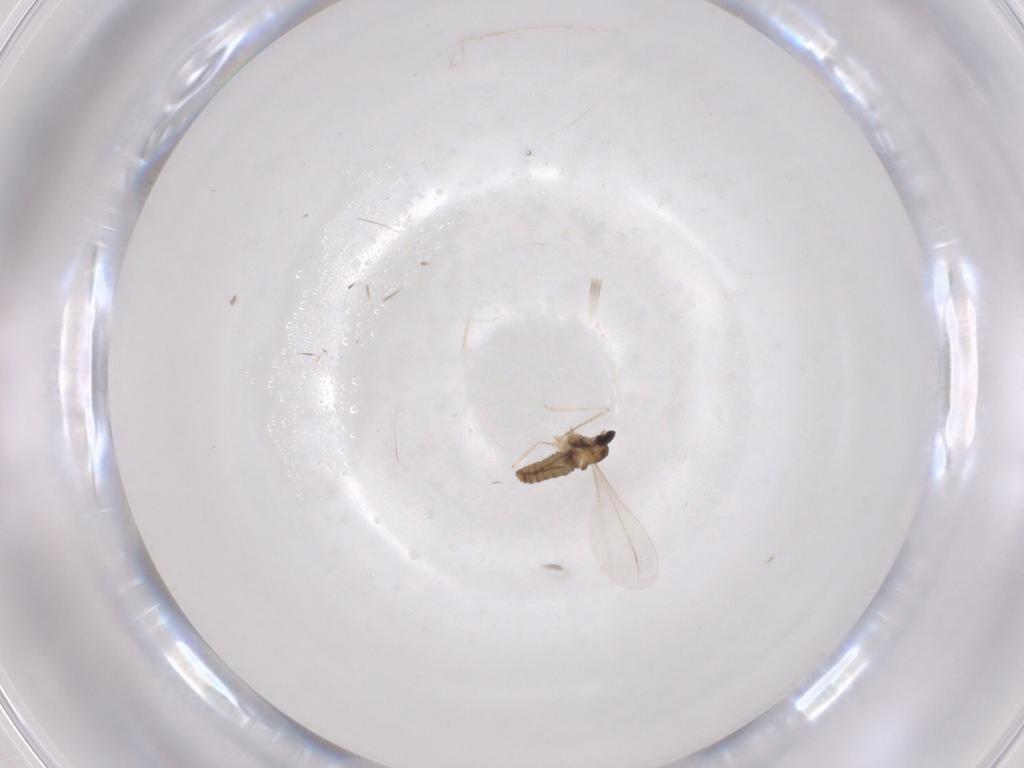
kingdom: Animalia
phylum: Arthropoda
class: Insecta
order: Diptera
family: Cecidomyiidae
